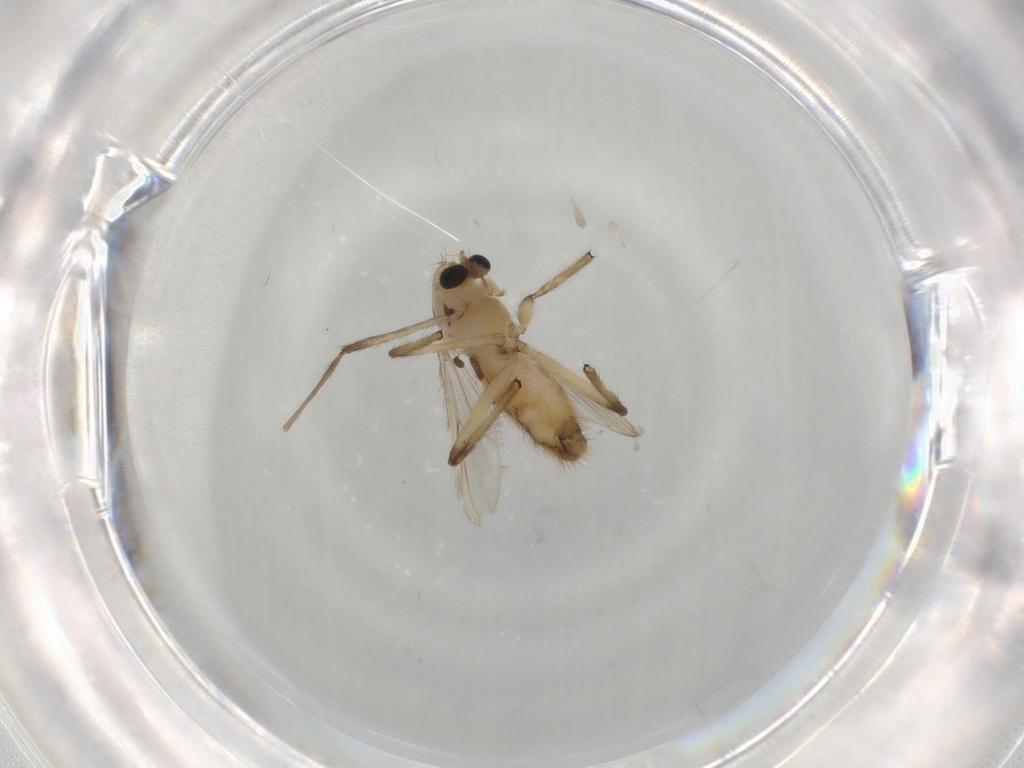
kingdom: Animalia
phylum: Arthropoda
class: Insecta
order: Diptera
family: Chironomidae
